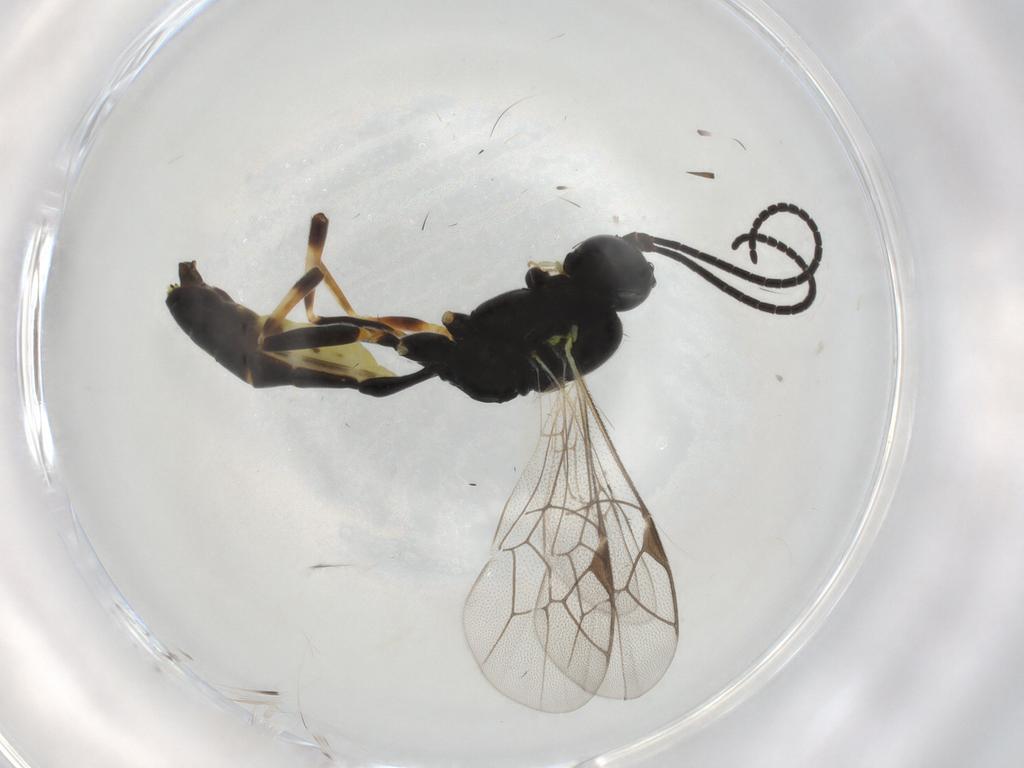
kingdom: Animalia
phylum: Arthropoda
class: Insecta
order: Hymenoptera
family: Ichneumonidae
